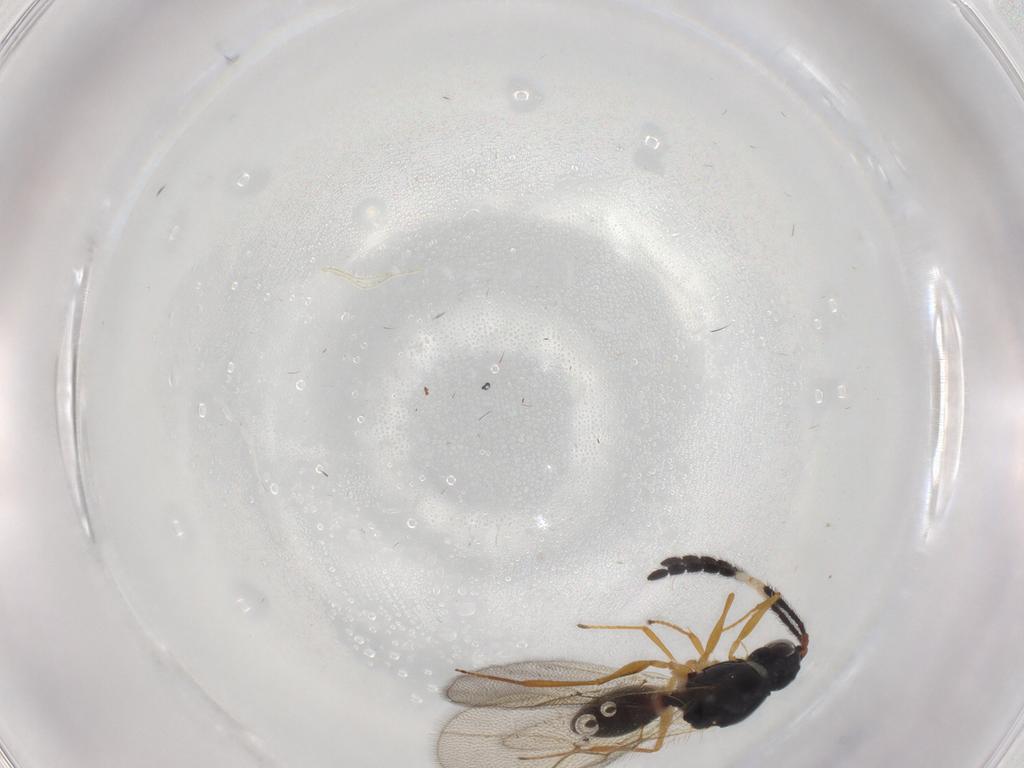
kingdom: Animalia
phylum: Arthropoda
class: Insecta
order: Hymenoptera
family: Figitidae
